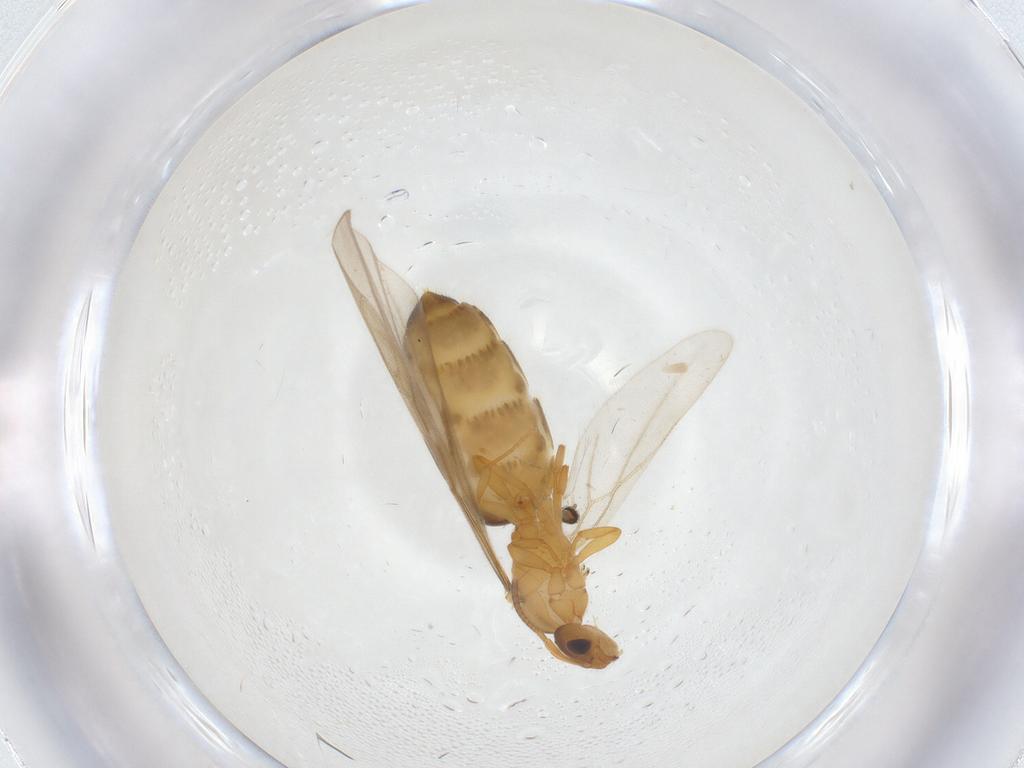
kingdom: Animalia
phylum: Arthropoda
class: Insecta
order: Hymenoptera
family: Formicidae
